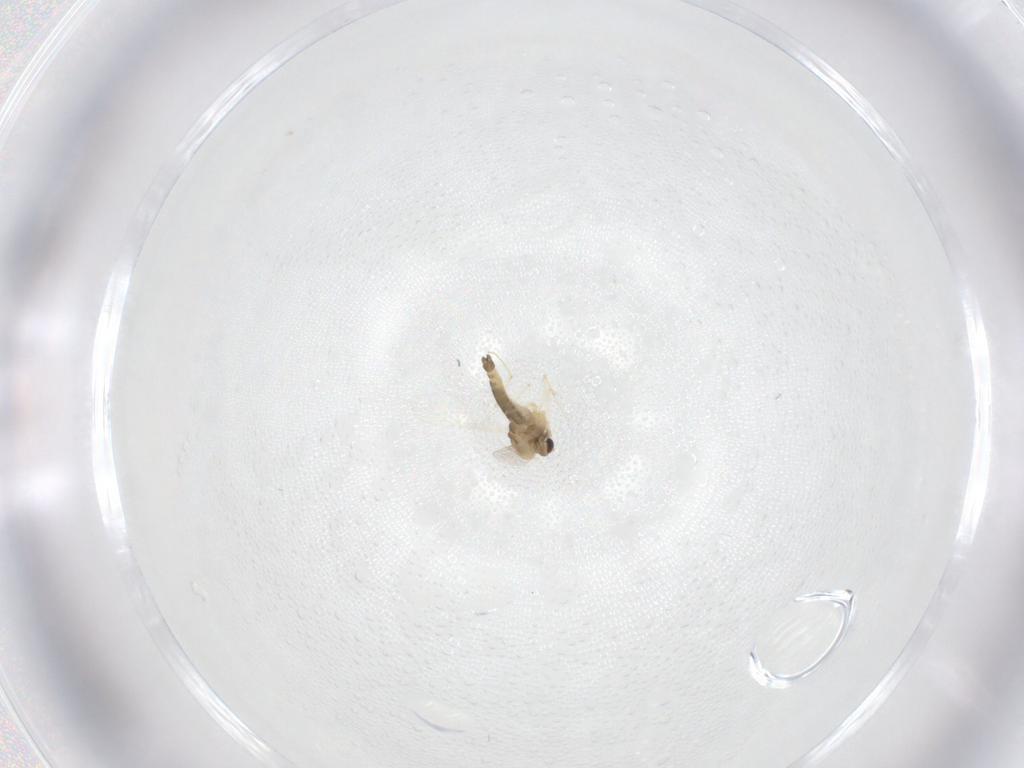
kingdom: Animalia
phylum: Arthropoda
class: Insecta
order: Diptera
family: Chironomidae
